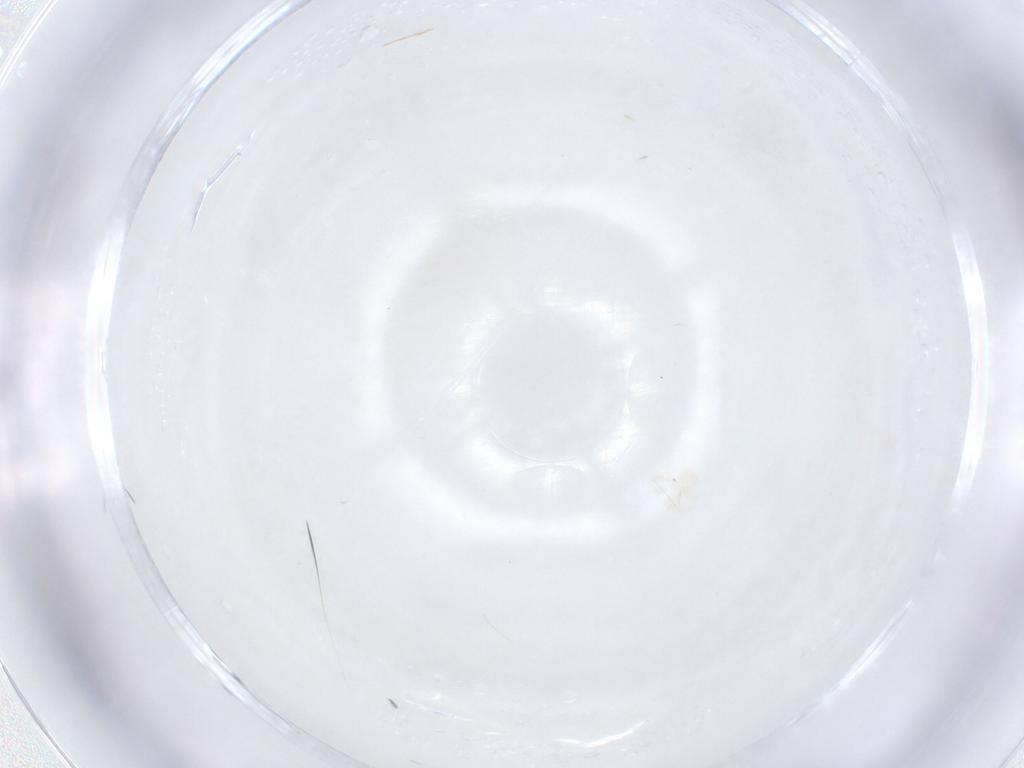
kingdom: Animalia
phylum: Arthropoda
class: Arachnida
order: Trombidiformes
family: Anystidae
